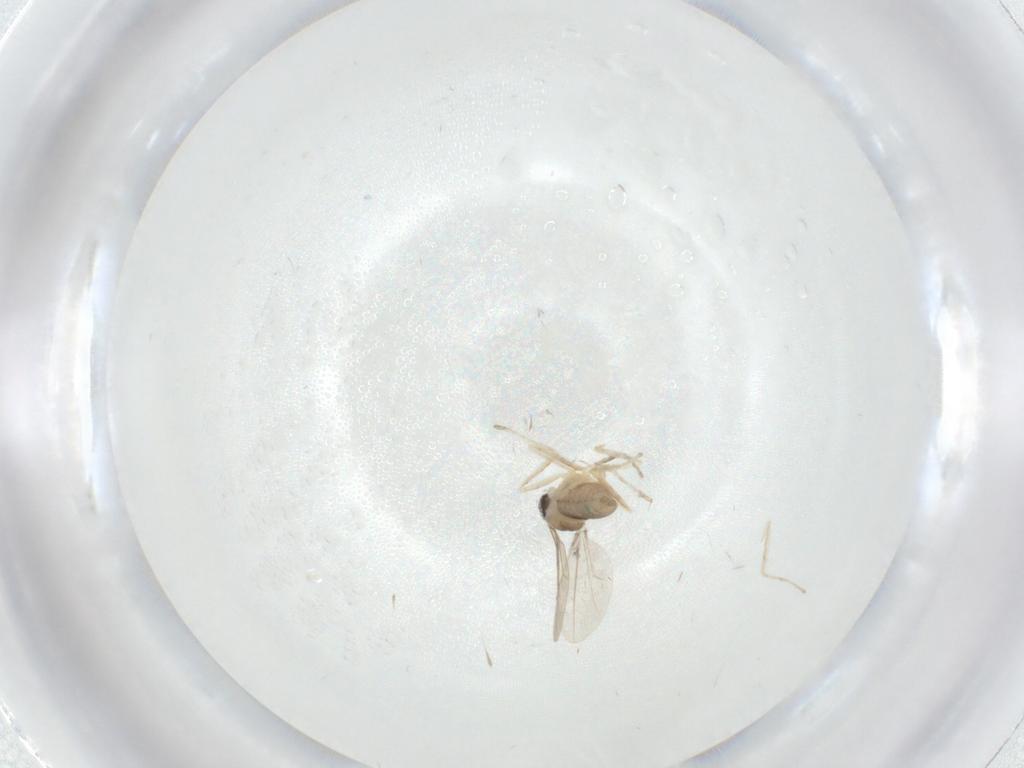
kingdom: Animalia
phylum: Arthropoda
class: Insecta
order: Diptera
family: Cecidomyiidae
